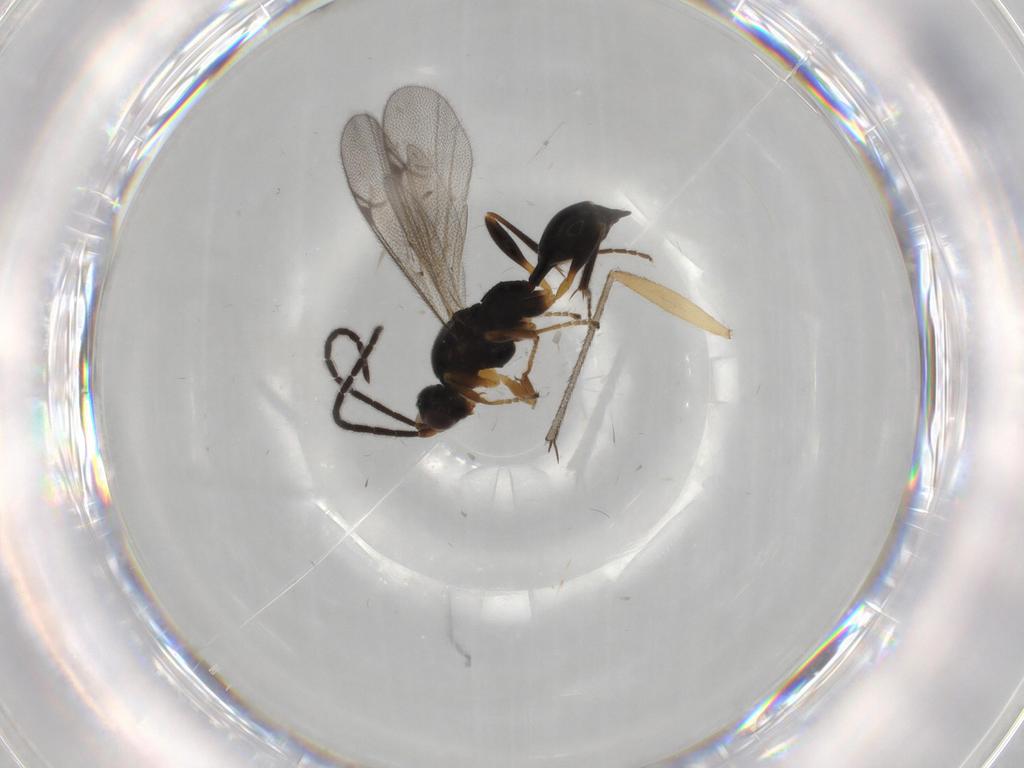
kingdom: Animalia
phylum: Arthropoda
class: Insecta
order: Hymenoptera
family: Proctotrupidae
